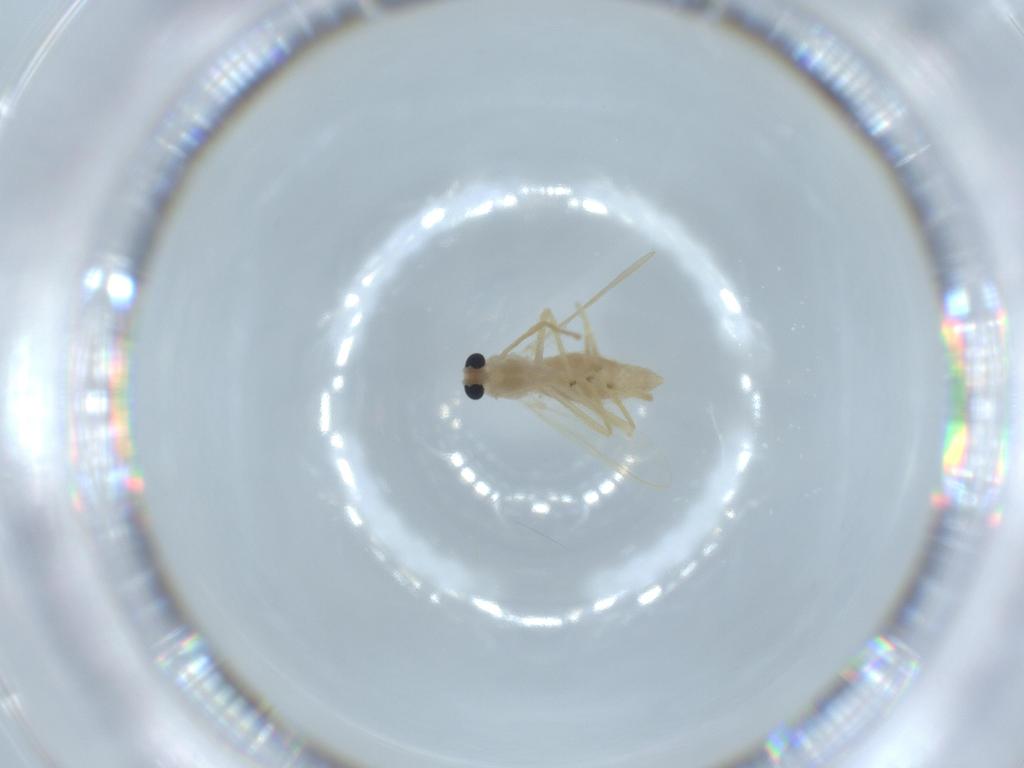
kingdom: Animalia
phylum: Arthropoda
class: Insecta
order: Diptera
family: Chironomidae
